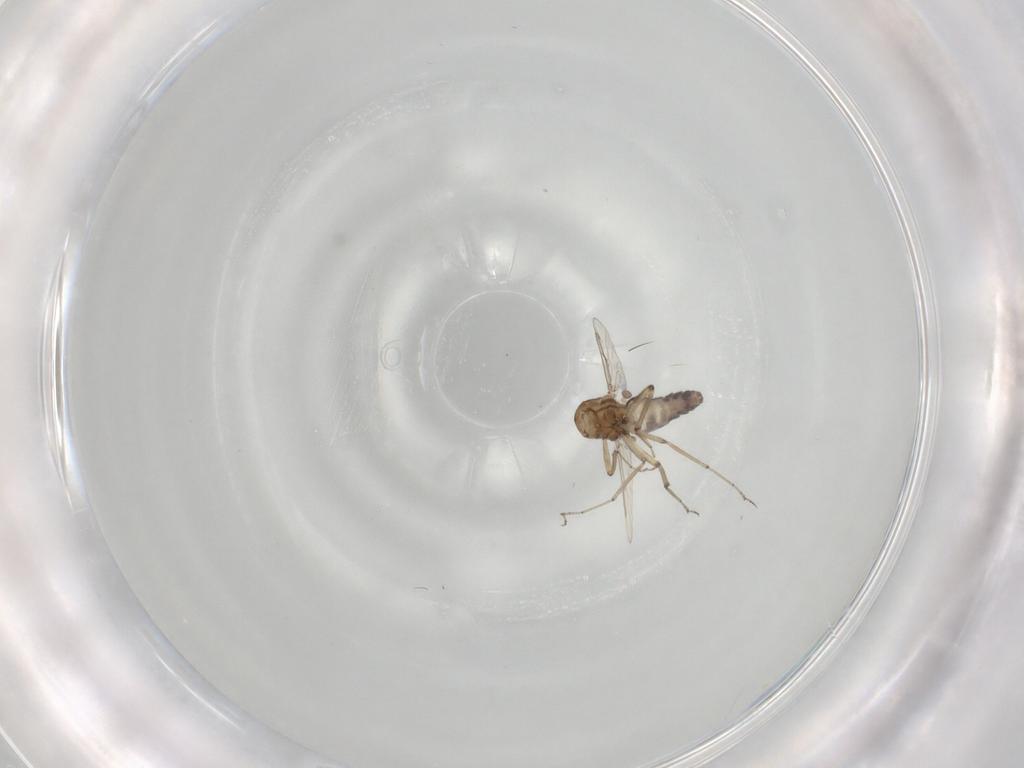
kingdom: Animalia
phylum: Arthropoda
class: Insecta
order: Diptera
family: Ceratopogonidae
